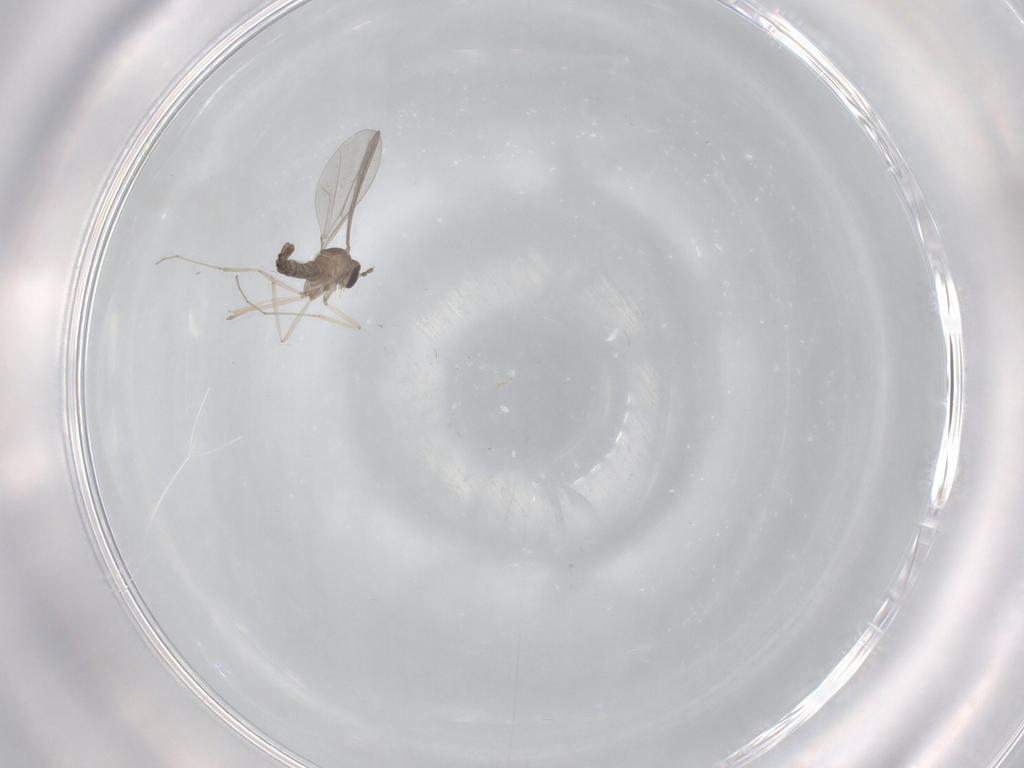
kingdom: Animalia
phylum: Arthropoda
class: Insecta
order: Diptera
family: Cecidomyiidae
